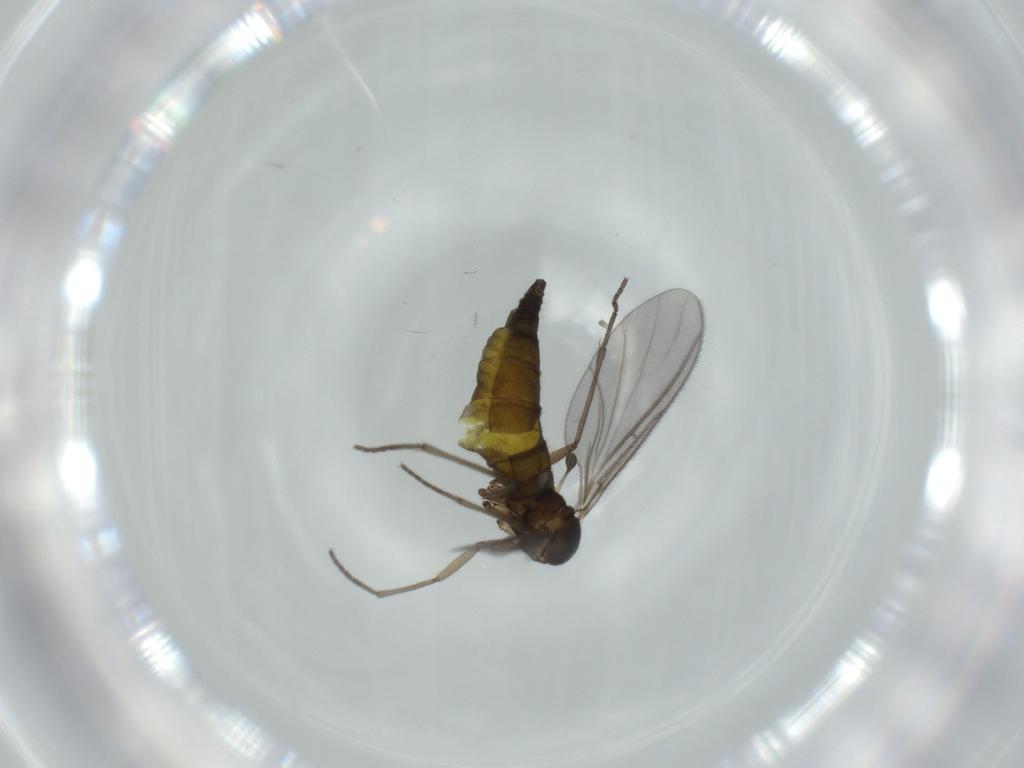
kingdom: Animalia
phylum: Arthropoda
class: Insecta
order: Diptera
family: Sciaridae
